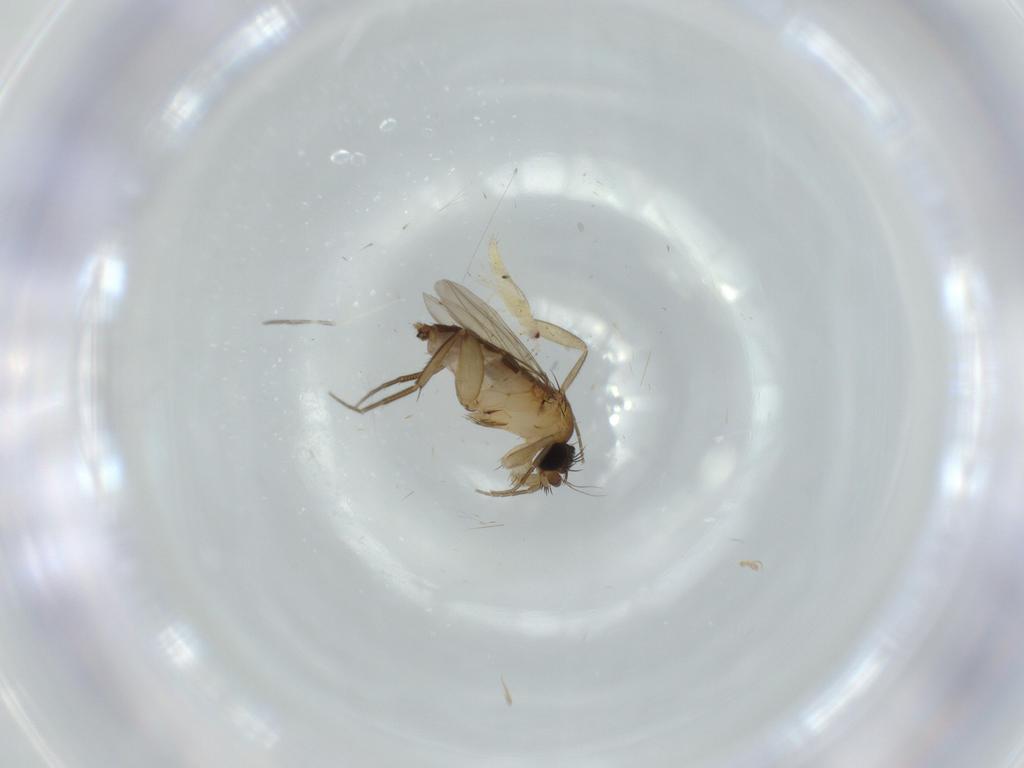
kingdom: Animalia
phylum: Arthropoda
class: Insecta
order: Diptera
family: Phoridae
